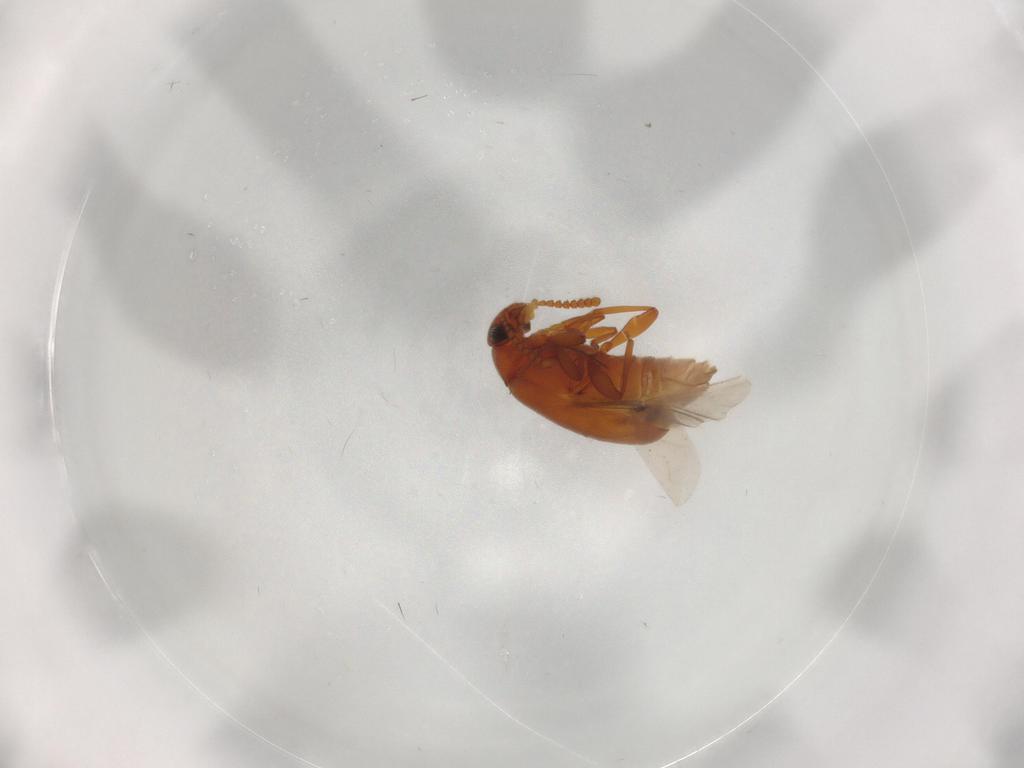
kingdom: Animalia
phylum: Arthropoda
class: Insecta
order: Coleoptera
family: Aderidae
